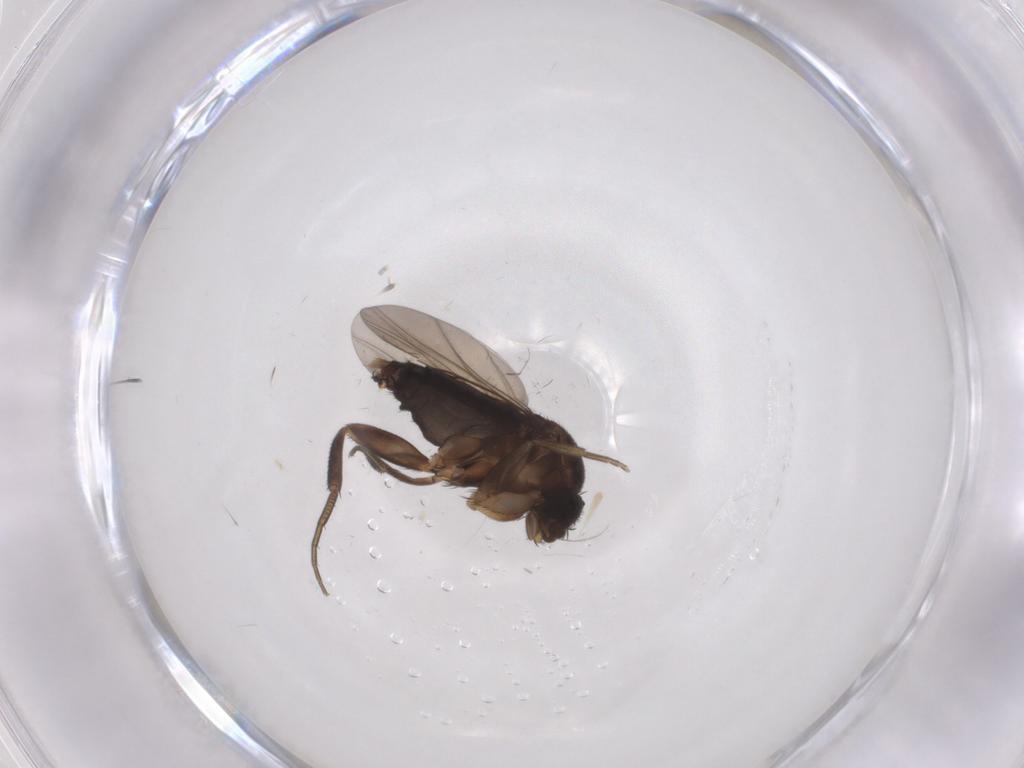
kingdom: Animalia
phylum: Arthropoda
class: Insecta
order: Diptera
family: Phoridae
